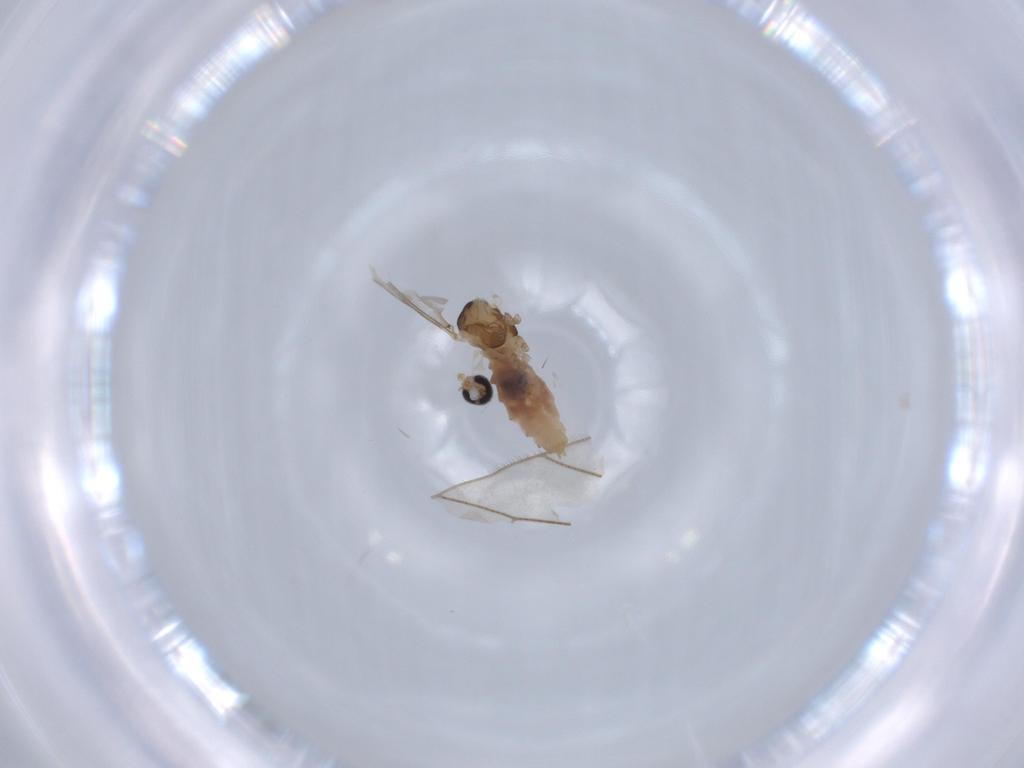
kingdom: Animalia
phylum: Arthropoda
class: Insecta
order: Diptera
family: Cecidomyiidae
